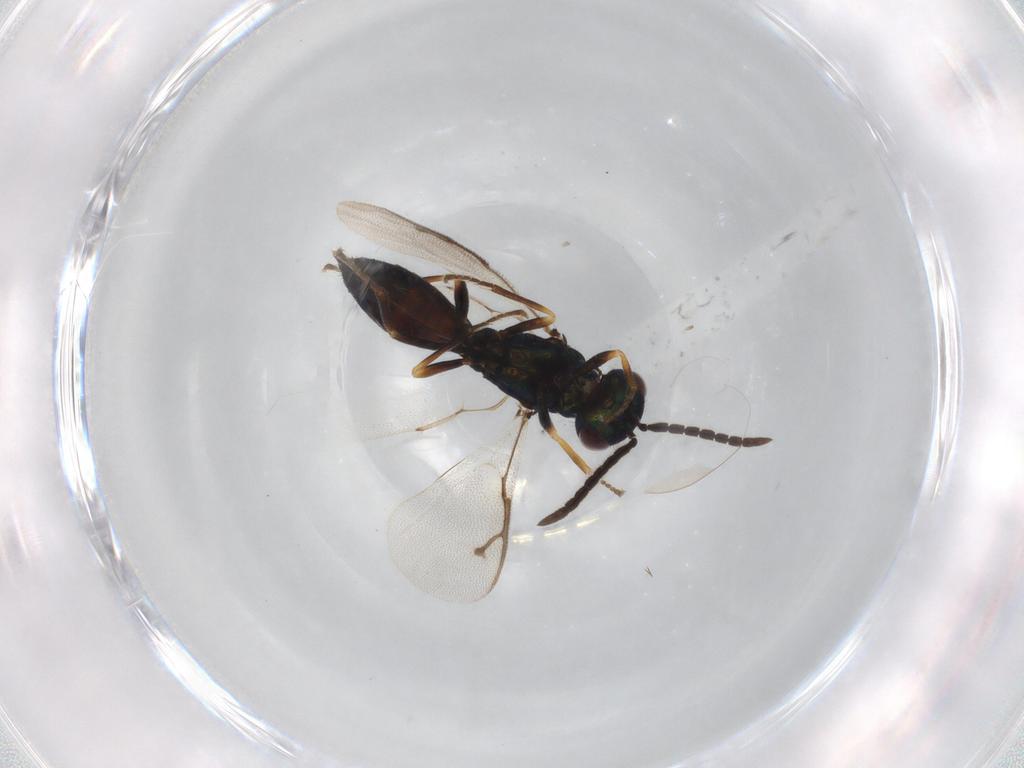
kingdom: Animalia
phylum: Arthropoda
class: Insecta
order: Hymenoptera
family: Pteromalidae
